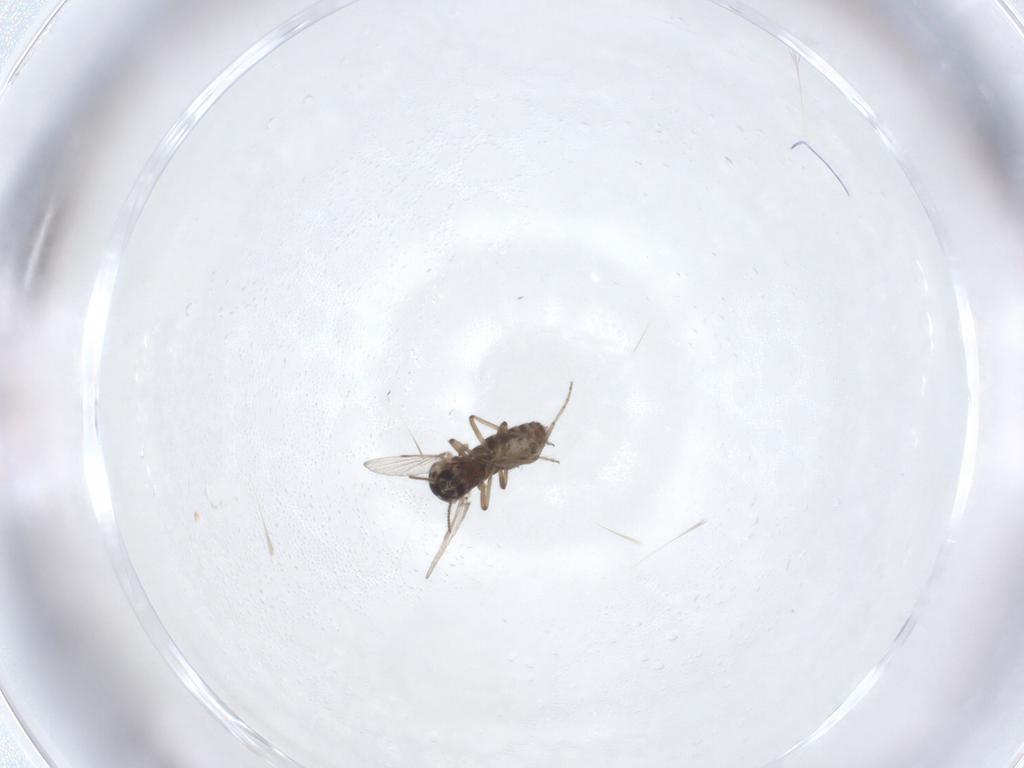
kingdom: Animalia
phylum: Arthropoda
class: Insecta
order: Diptera
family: Ceratopogonidae
